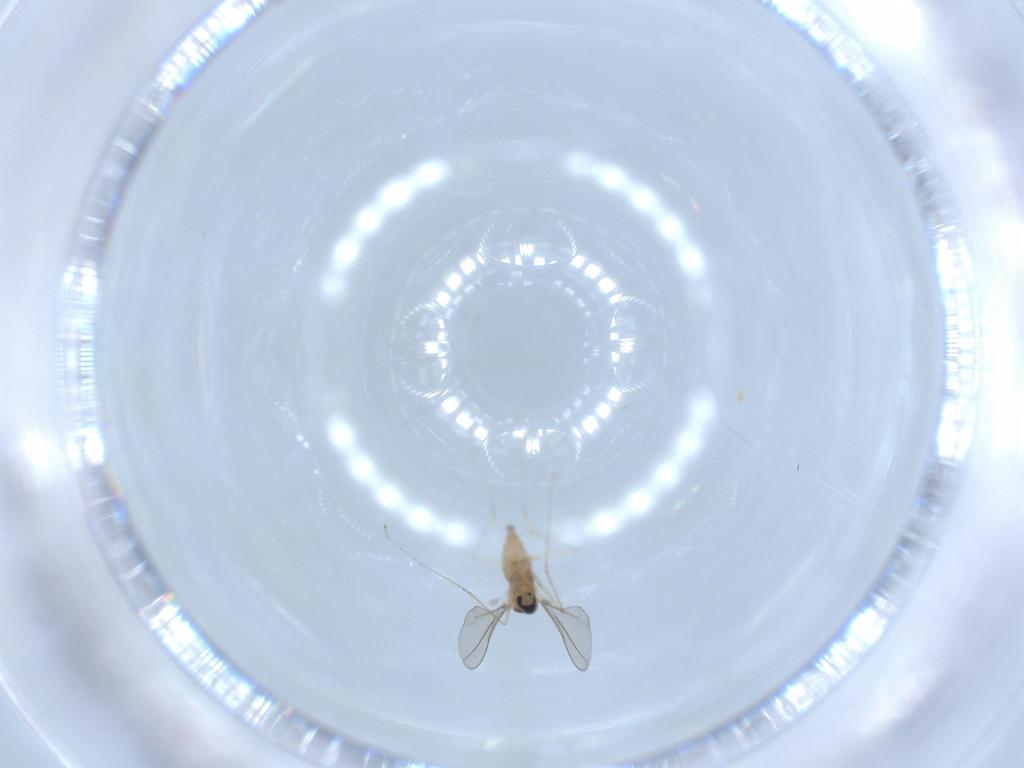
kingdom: Animalia
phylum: Arthropoda
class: Insecta
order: Diptera
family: Cecidomyiidae
